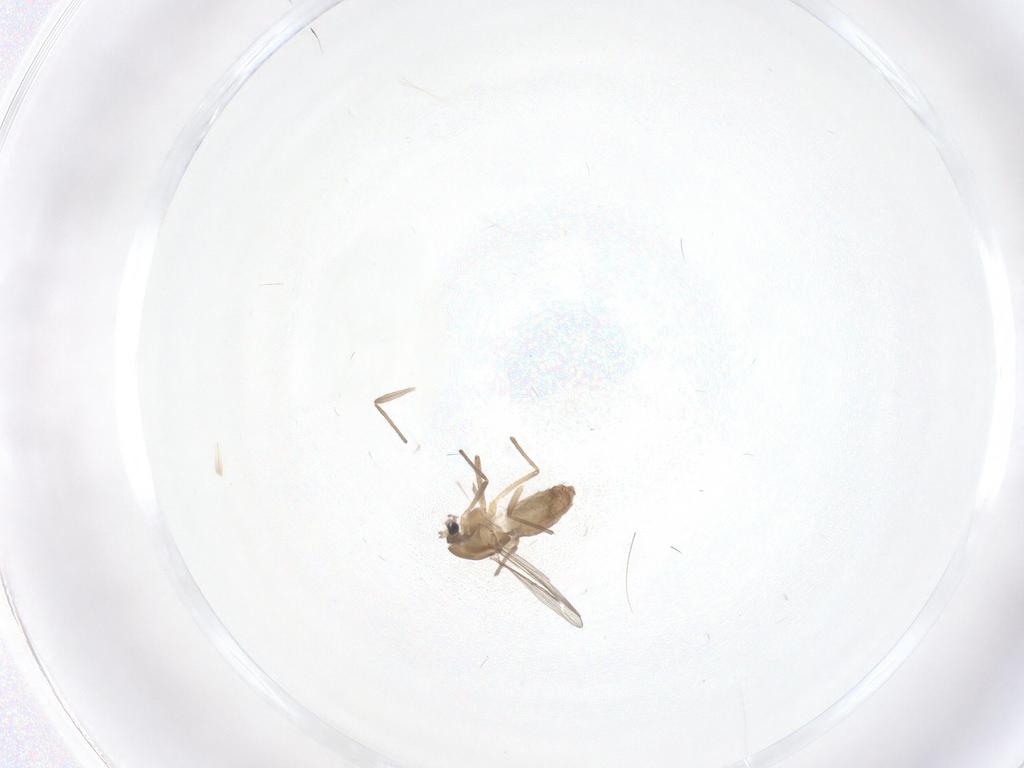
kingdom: Animalia
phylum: Arthropoda
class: Insecta
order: Diptera
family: Chironomidae
